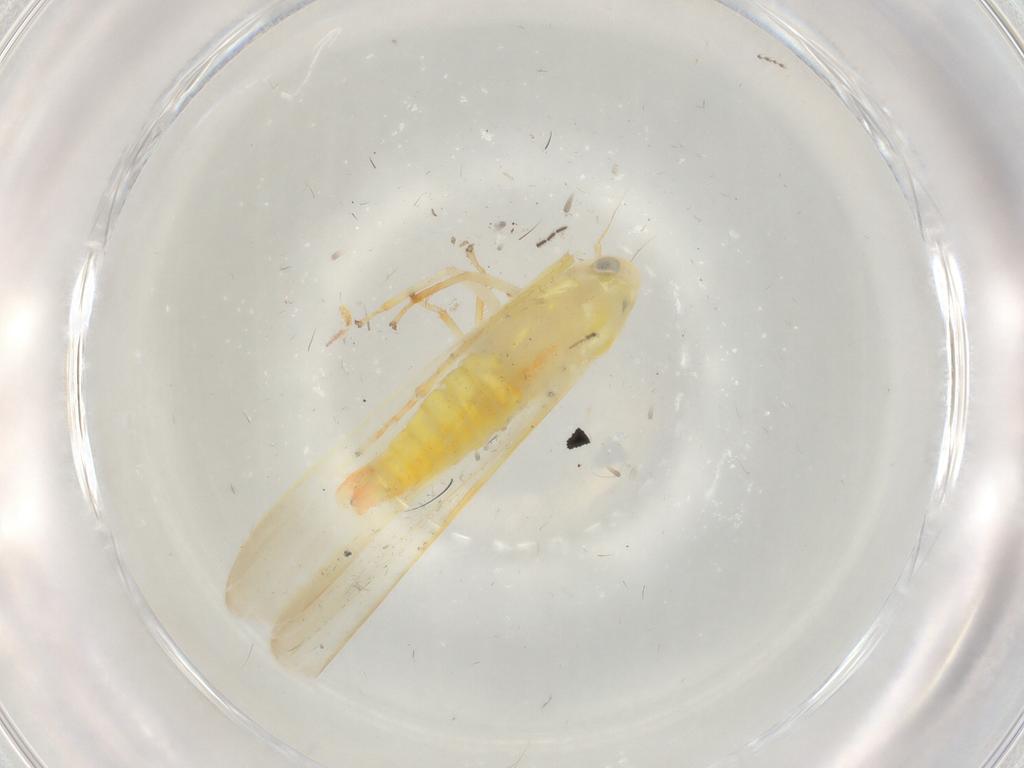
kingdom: Animalia
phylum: Arthropoda
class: Insecta
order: Hemiptera
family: Cicadellidae
